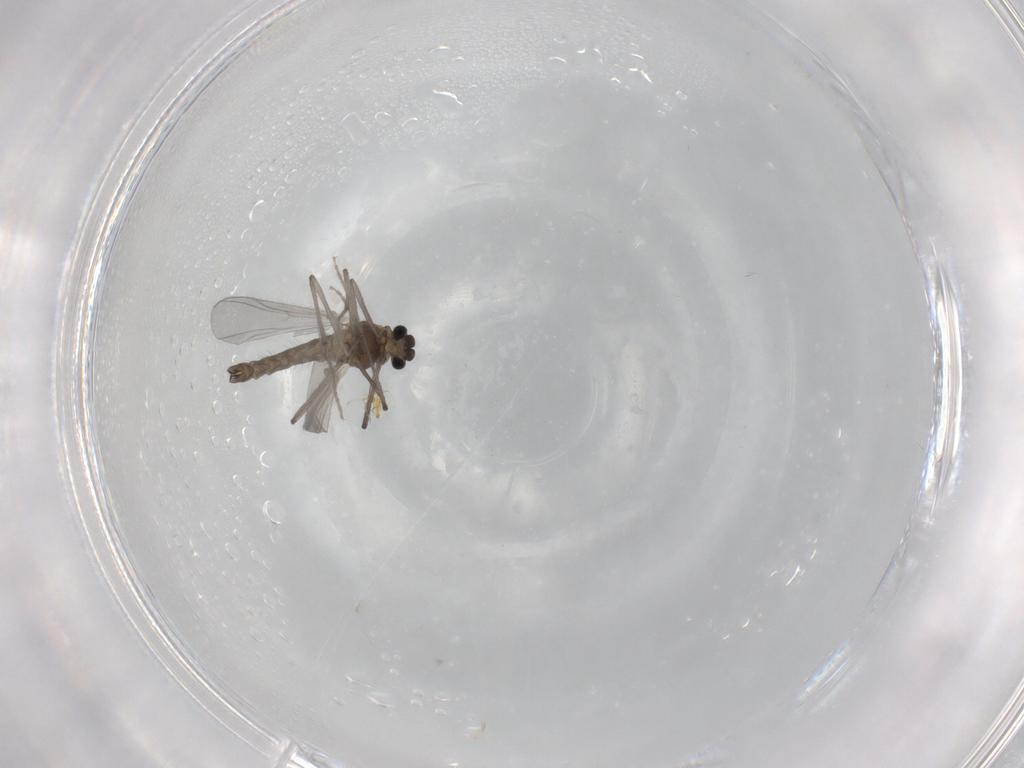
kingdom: Animalia
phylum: Arthropoda
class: Insecta
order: Diptera
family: Chironomidae
